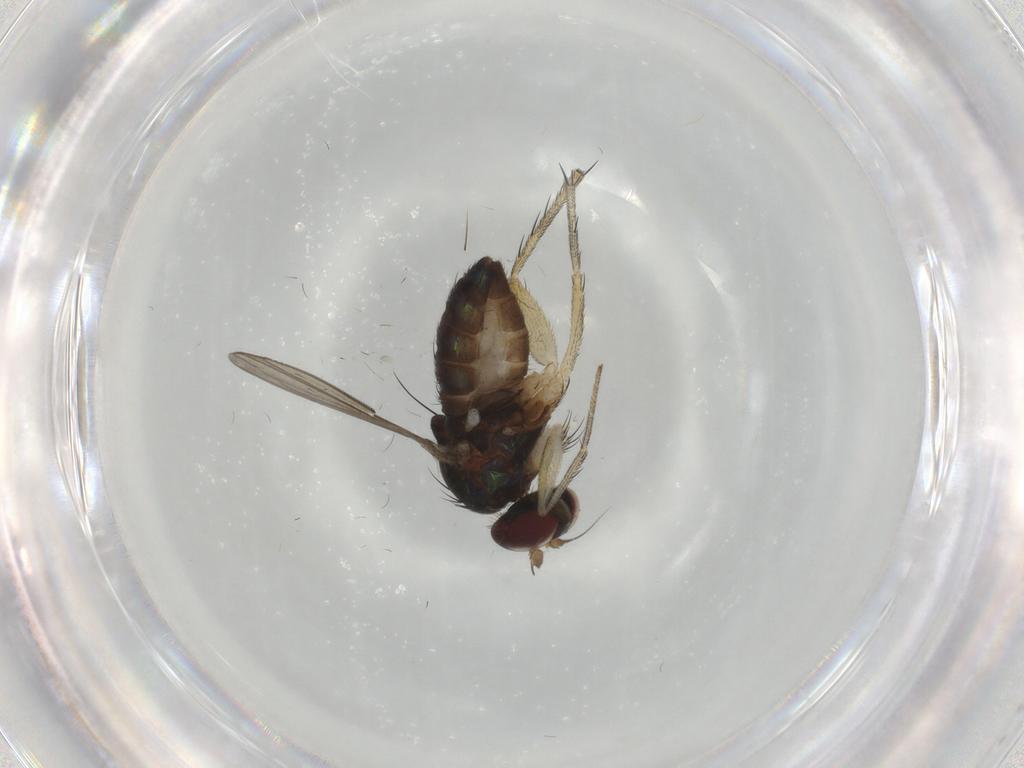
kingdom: Animalia
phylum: Arthropoda
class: Insecta
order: Diptera
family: Dolichopodidae
